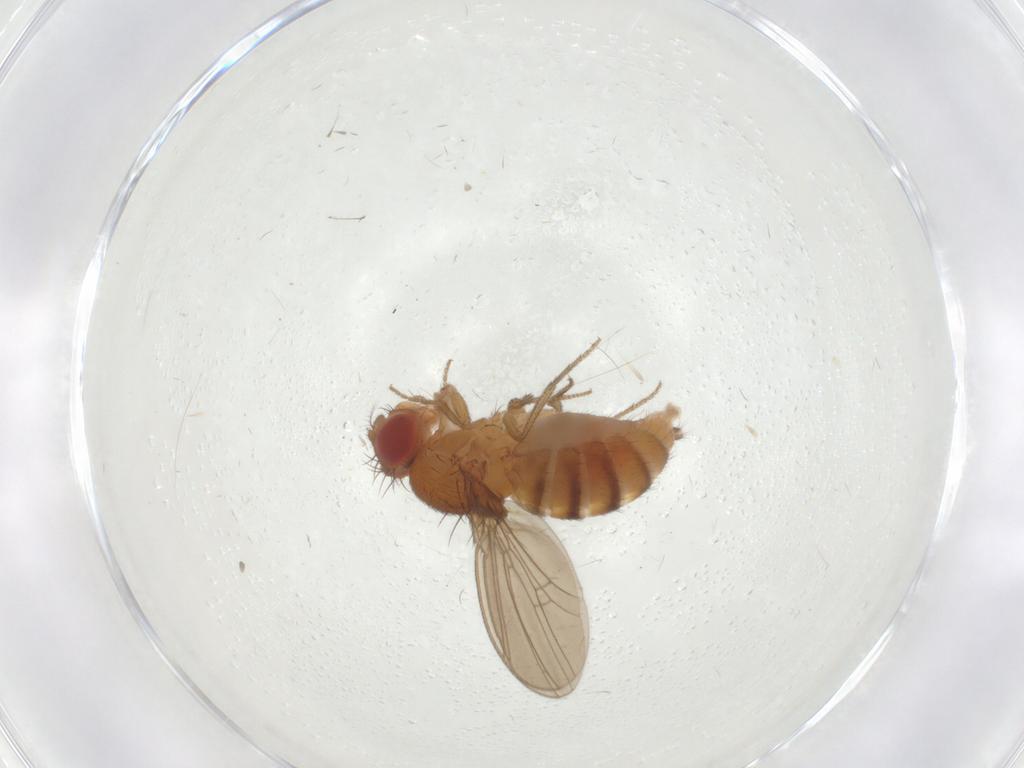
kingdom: Animalia
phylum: Arthropoda
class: Insecta
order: Diptera
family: Drosophilidae
